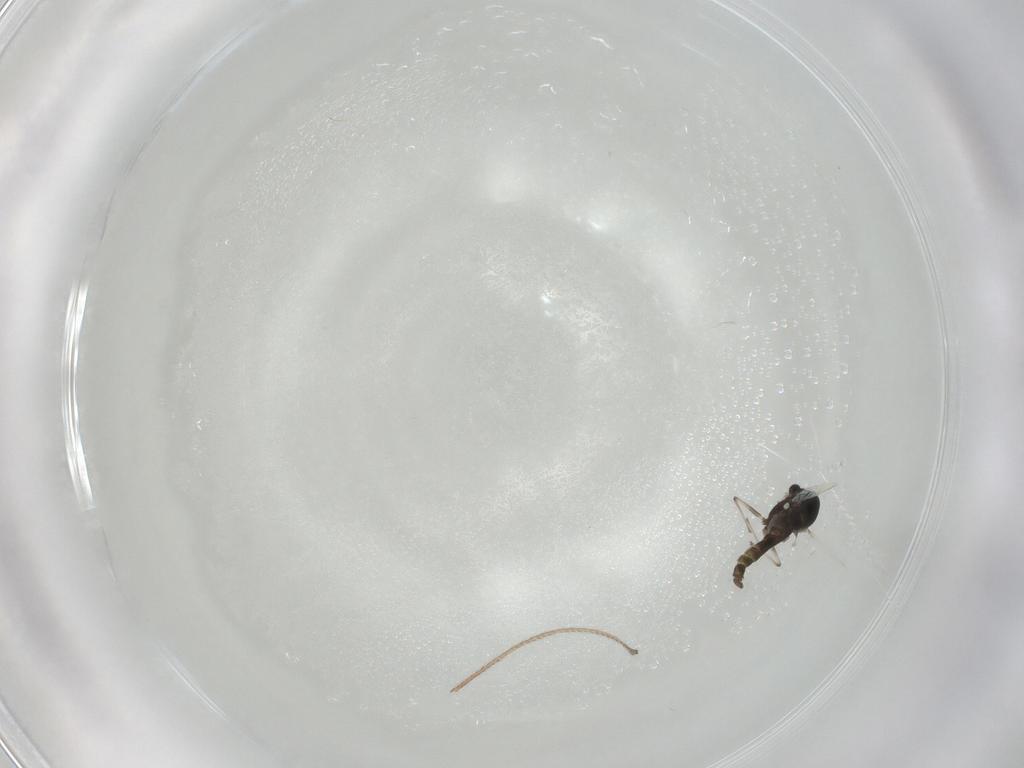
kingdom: Animalia
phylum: Arthropoda
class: Insecta
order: Diptera
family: Chironomidae
